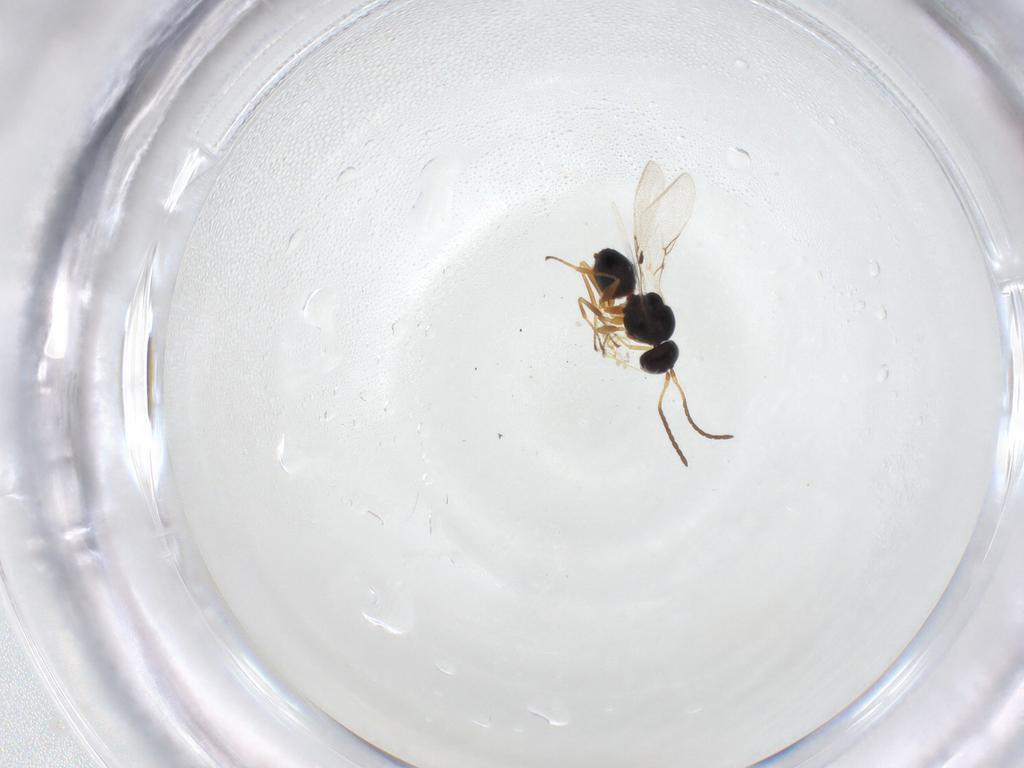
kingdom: Animalia
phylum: Arthropoda
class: Insecta
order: Hymenoptera
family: Figitidae
